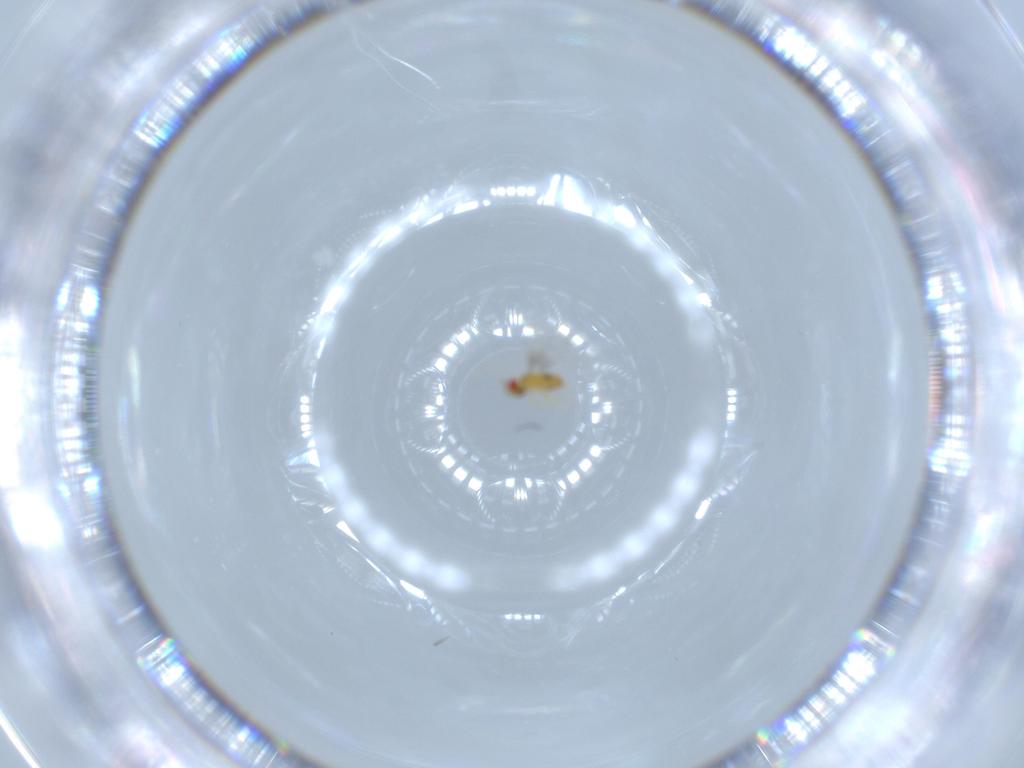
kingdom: Animalia
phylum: Arthropoda
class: Insecta
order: Hymenoptera
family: Trichogrammatidae
